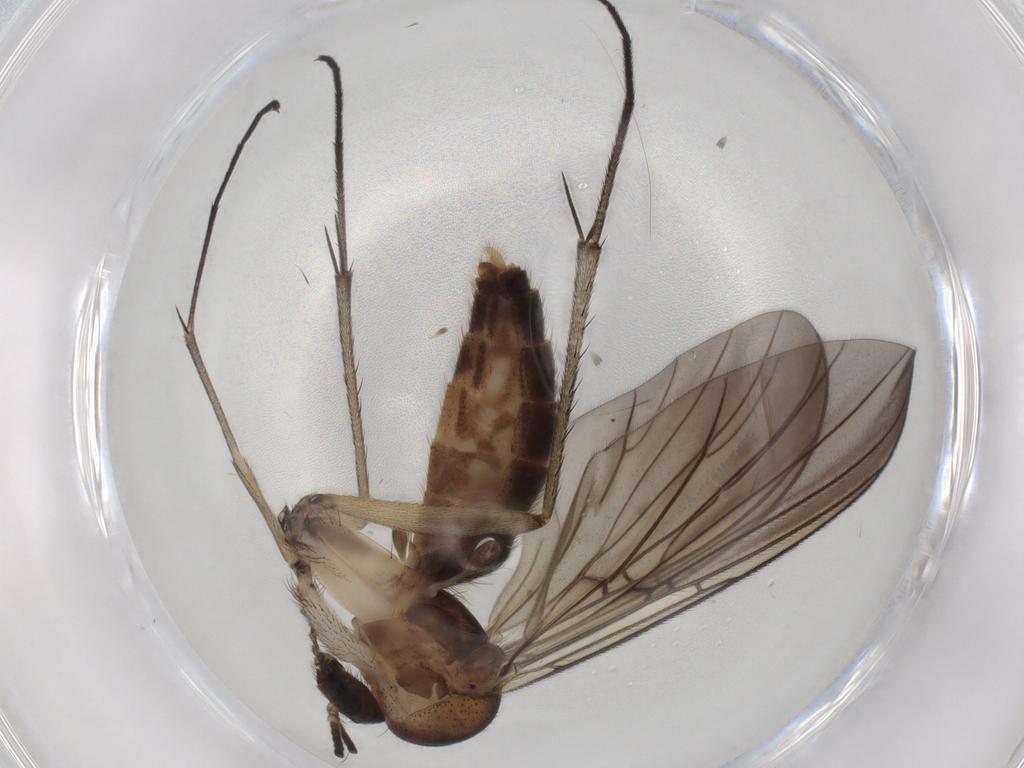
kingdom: Animalia
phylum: Arthropoda
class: Insecta
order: Diptera
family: Hybotidae
